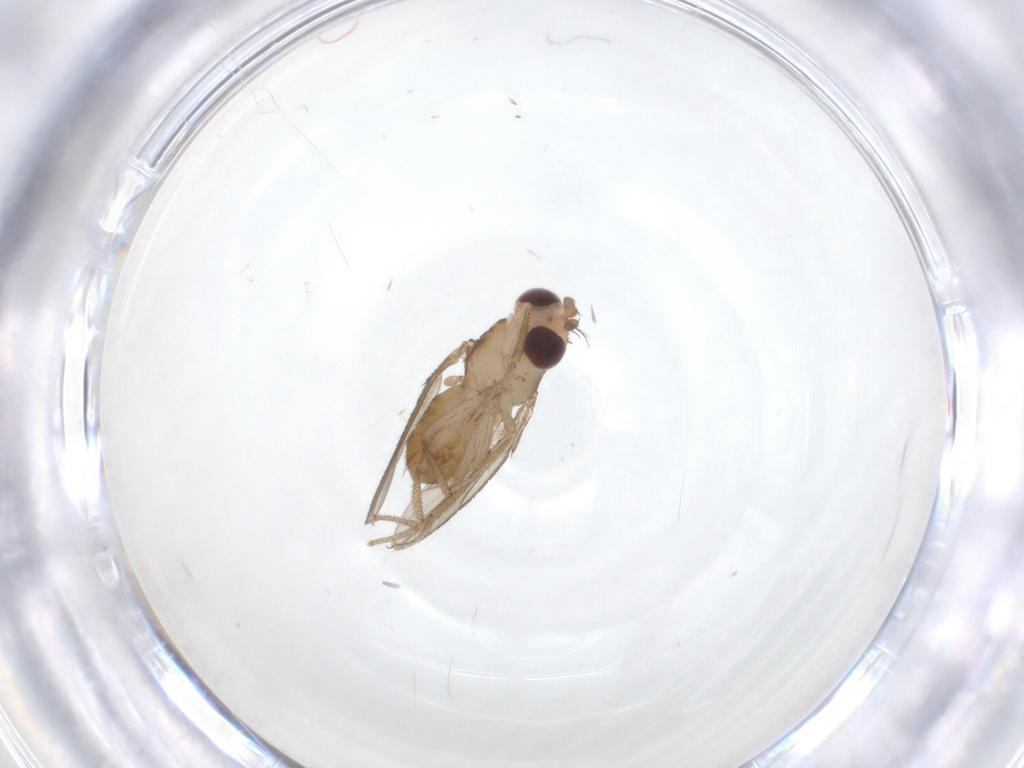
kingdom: Animalia
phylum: Arthropoda
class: Insecta
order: Diptera
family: Drosophilidae
